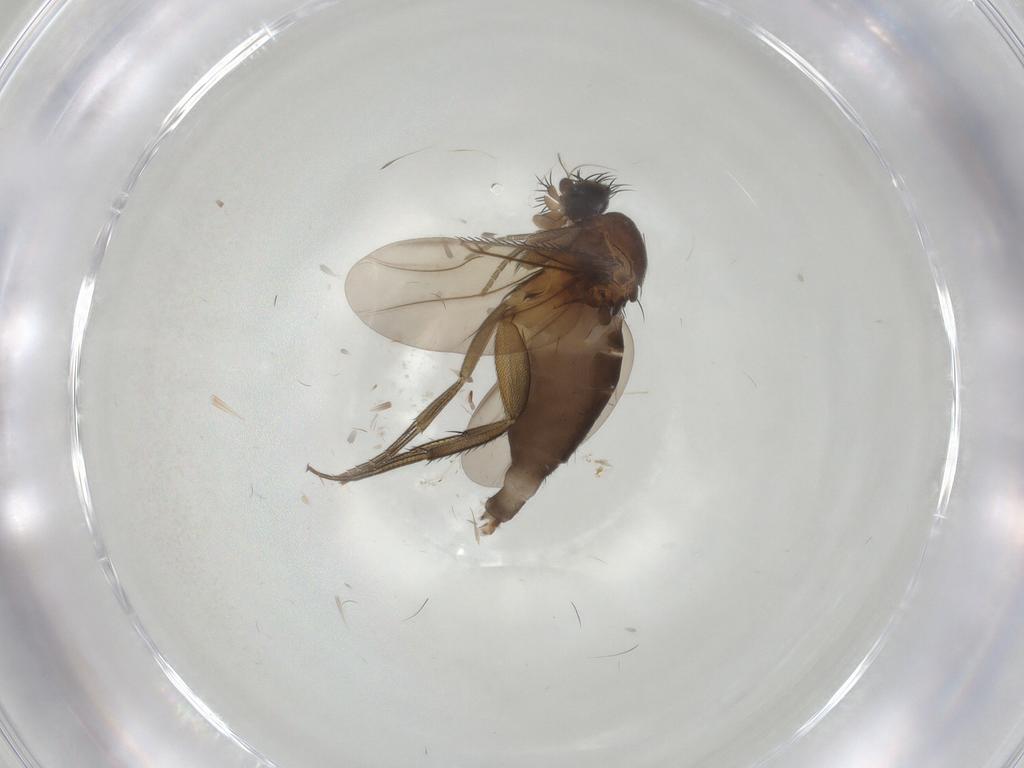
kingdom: Animalia
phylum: Arthropoda
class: Insecta
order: Diptera
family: Phoridae
